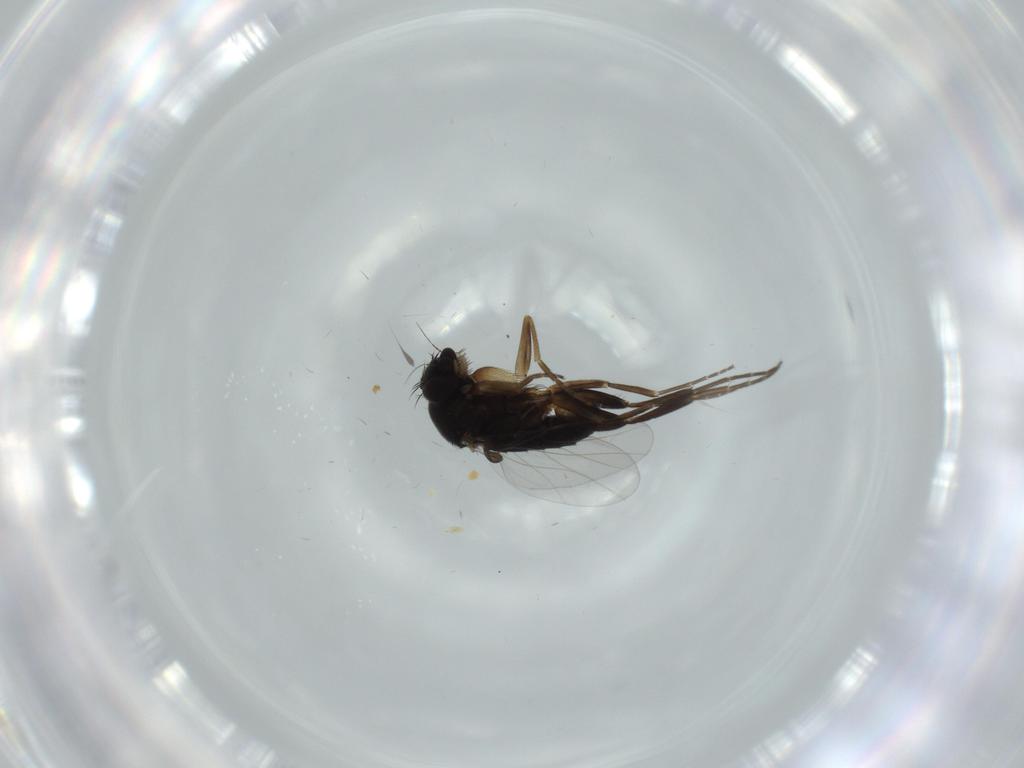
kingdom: Animalia
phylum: Arthropoda
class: Insecta
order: Diptera
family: Phoridae
